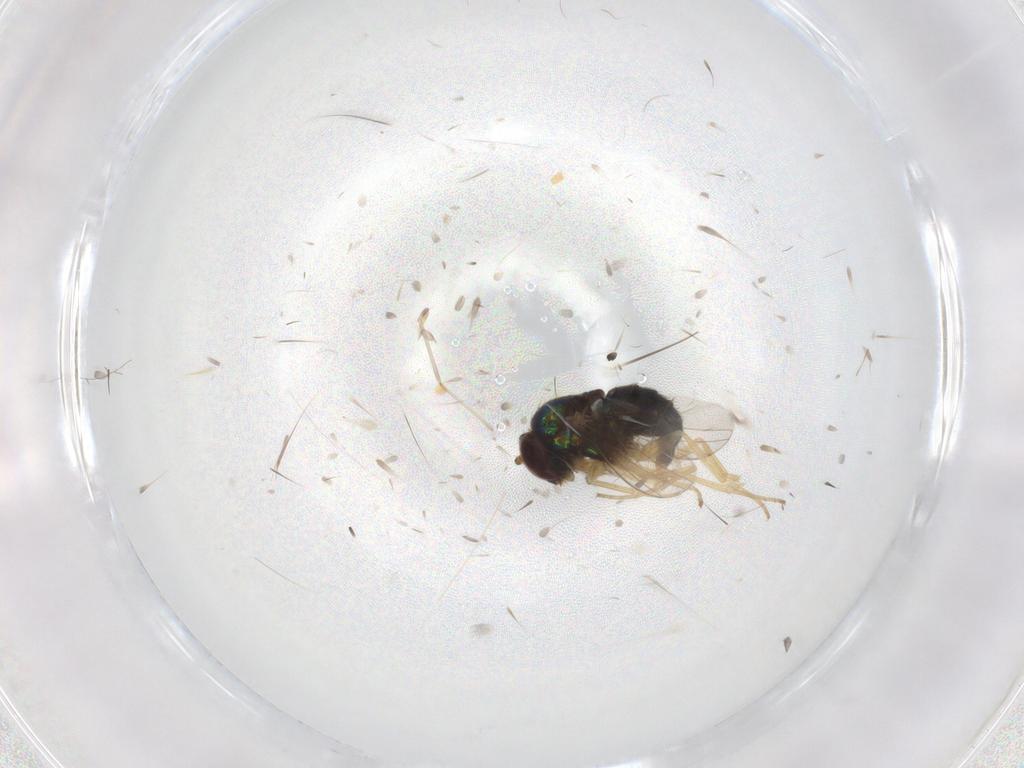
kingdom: Animalia
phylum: Arthropoda
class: Insecta
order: Diptera
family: Dolichopodidae
